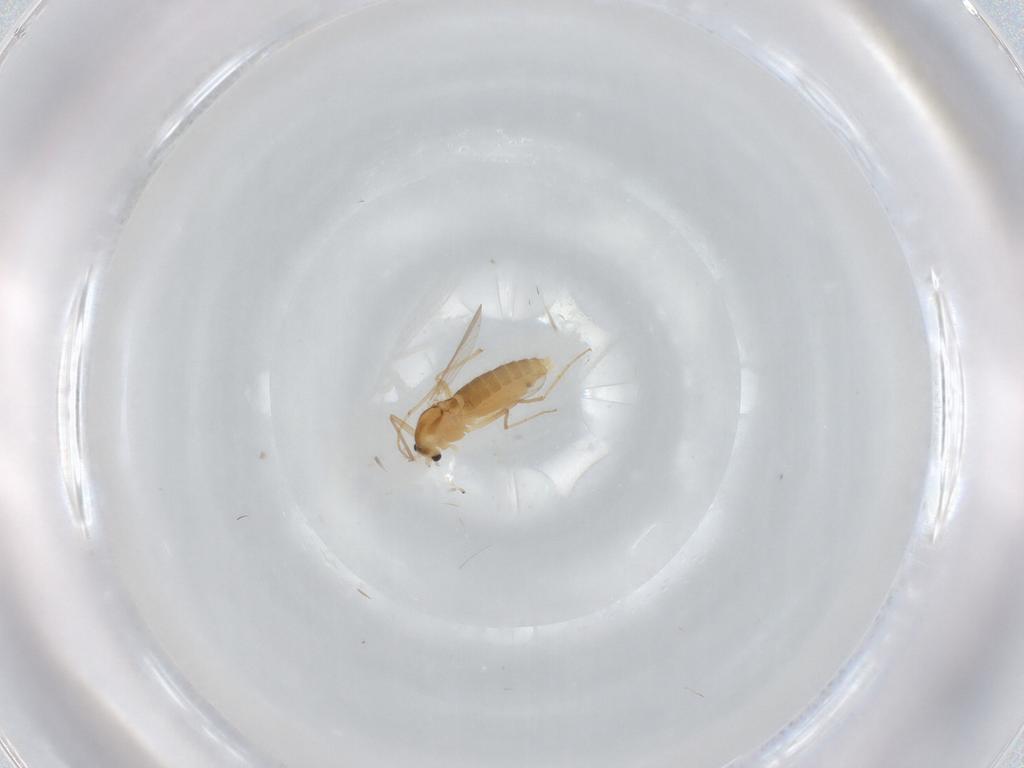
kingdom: Animalia
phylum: Arthropoda
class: Insecta
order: Diptera
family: Chironomidae
